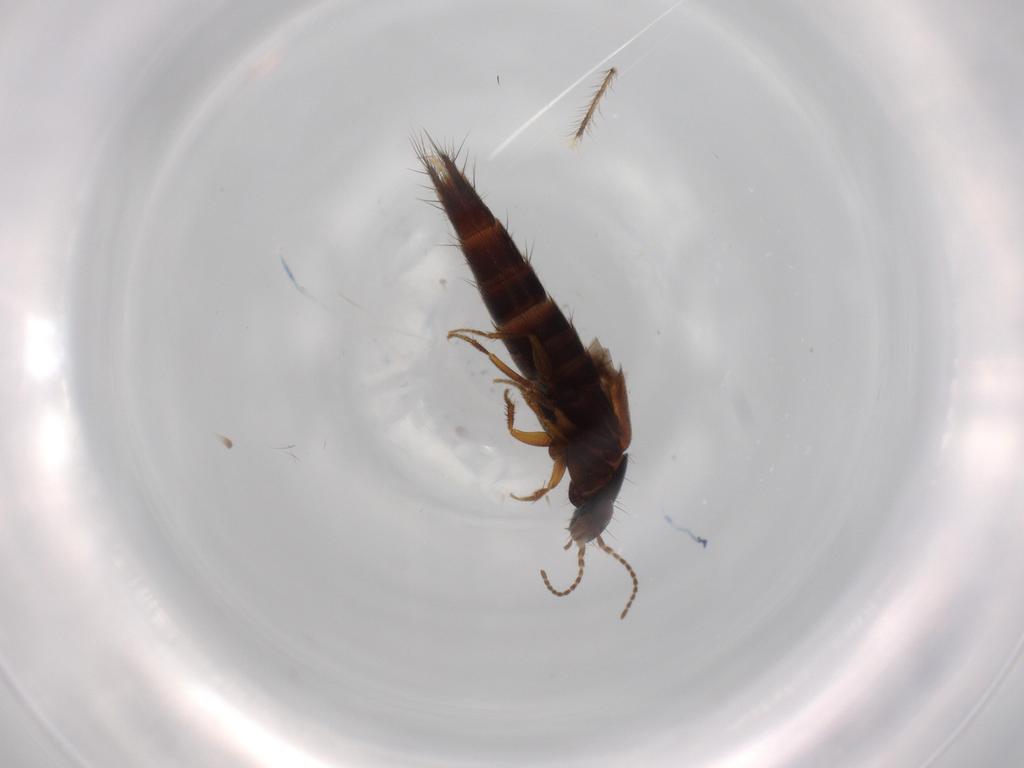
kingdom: Animalia
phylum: Arthropoda
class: Insecta
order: Coleoptera
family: Staphylinidae
